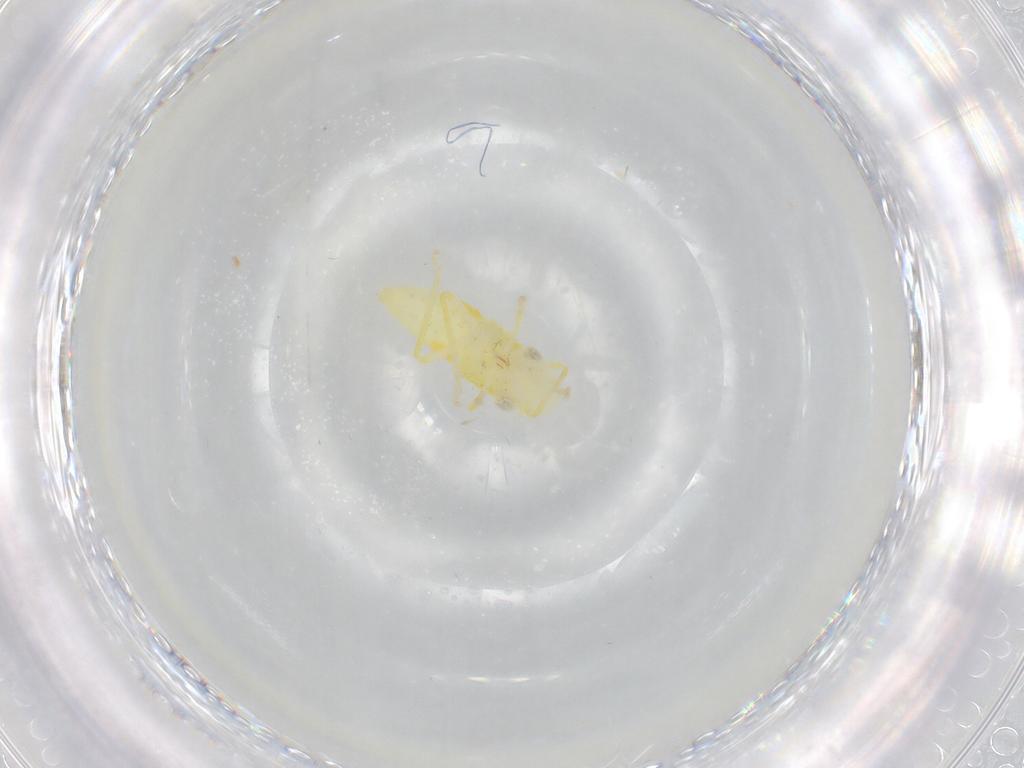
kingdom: Animalia
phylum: Arthropoda
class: Insecta
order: Hemiptera
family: Cicadellidae
